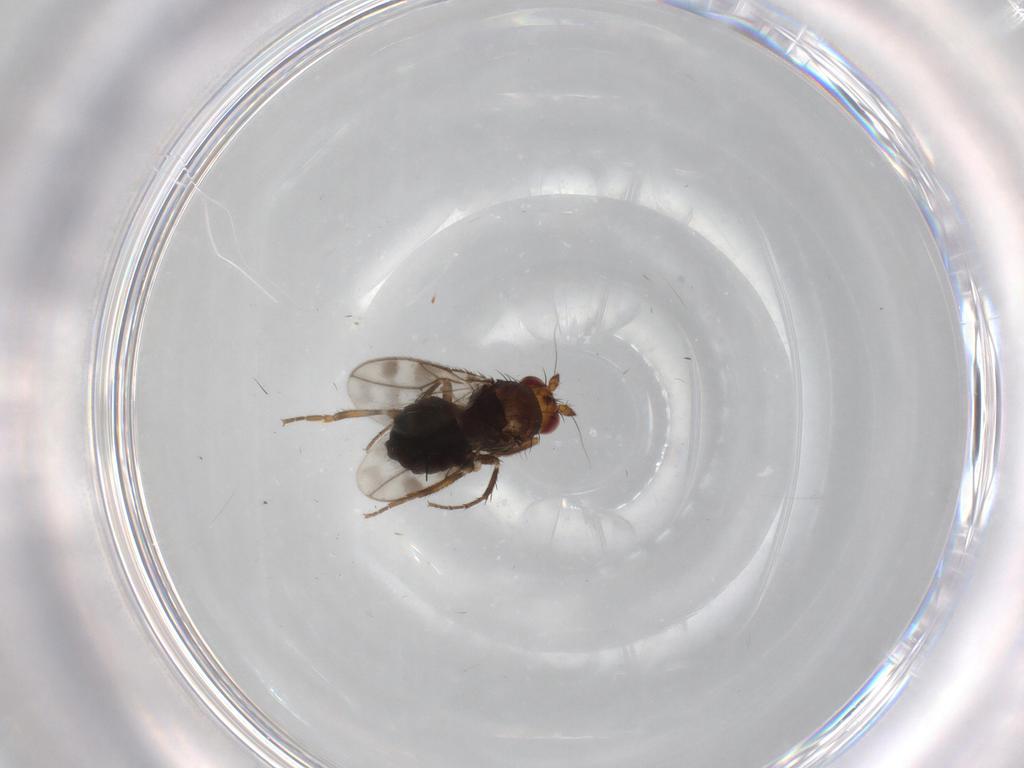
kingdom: Animalia
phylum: Arthropoda
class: Insecta
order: Diptera
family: Sphaeroceridae
